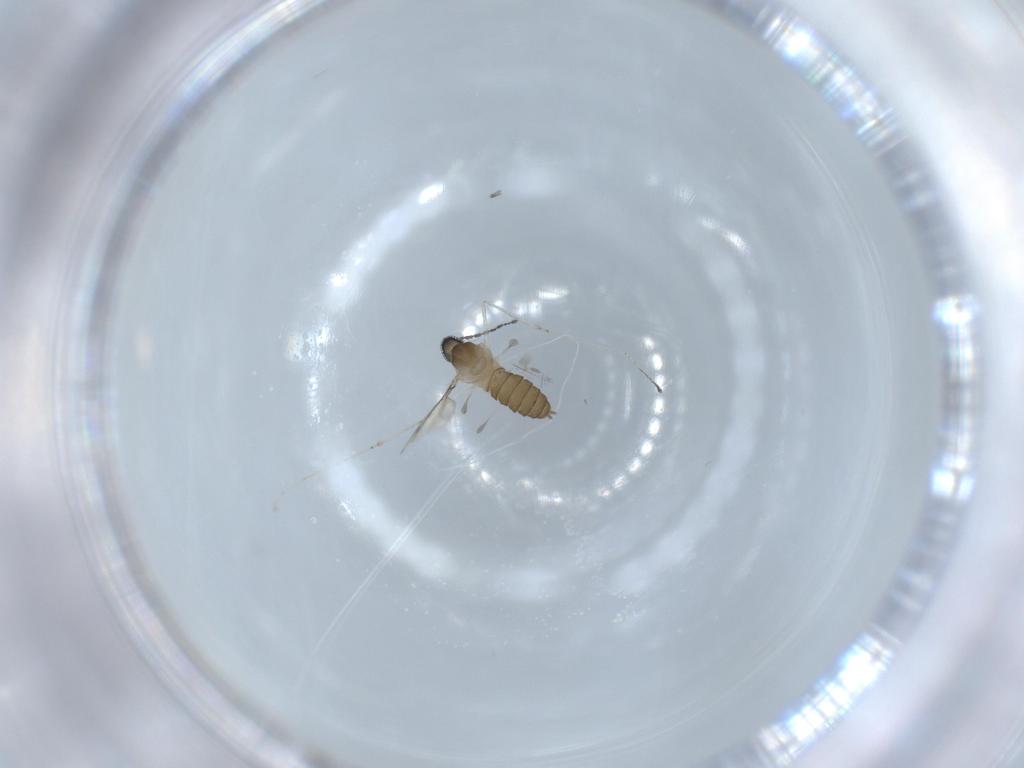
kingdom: Animalia
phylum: Arthropoda
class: Insecta
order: Diptera
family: Cecidomyiidae
